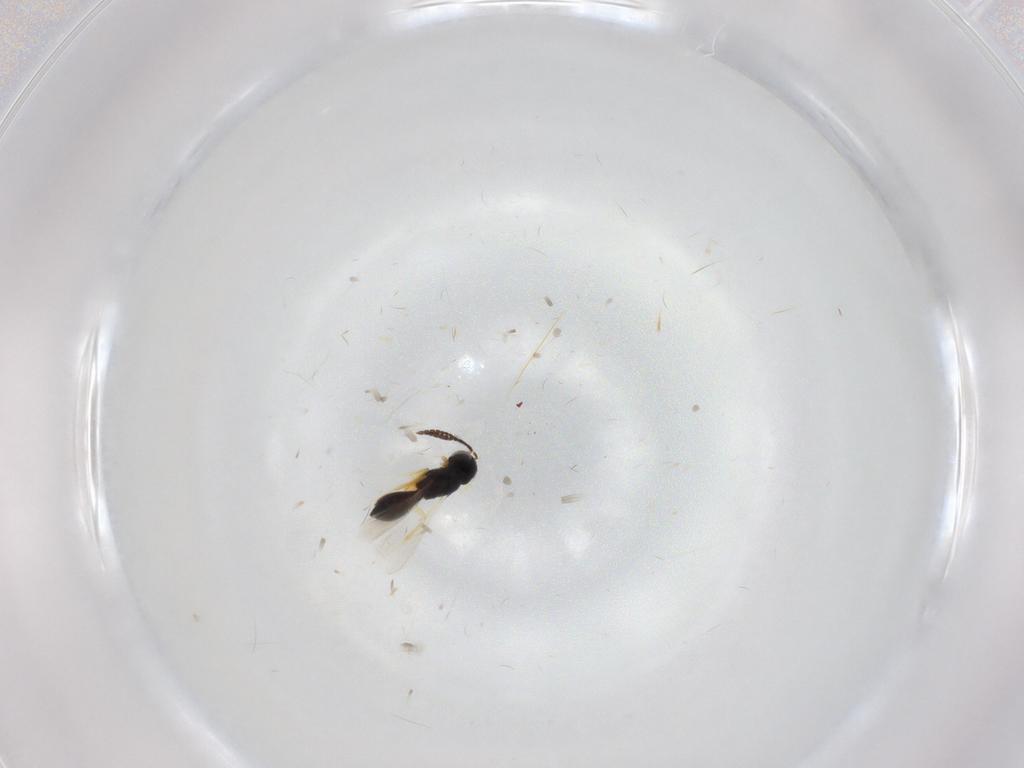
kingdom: Animalia
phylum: Arthropoda
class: Insecta
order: Hymenoptera
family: Scelionidae
